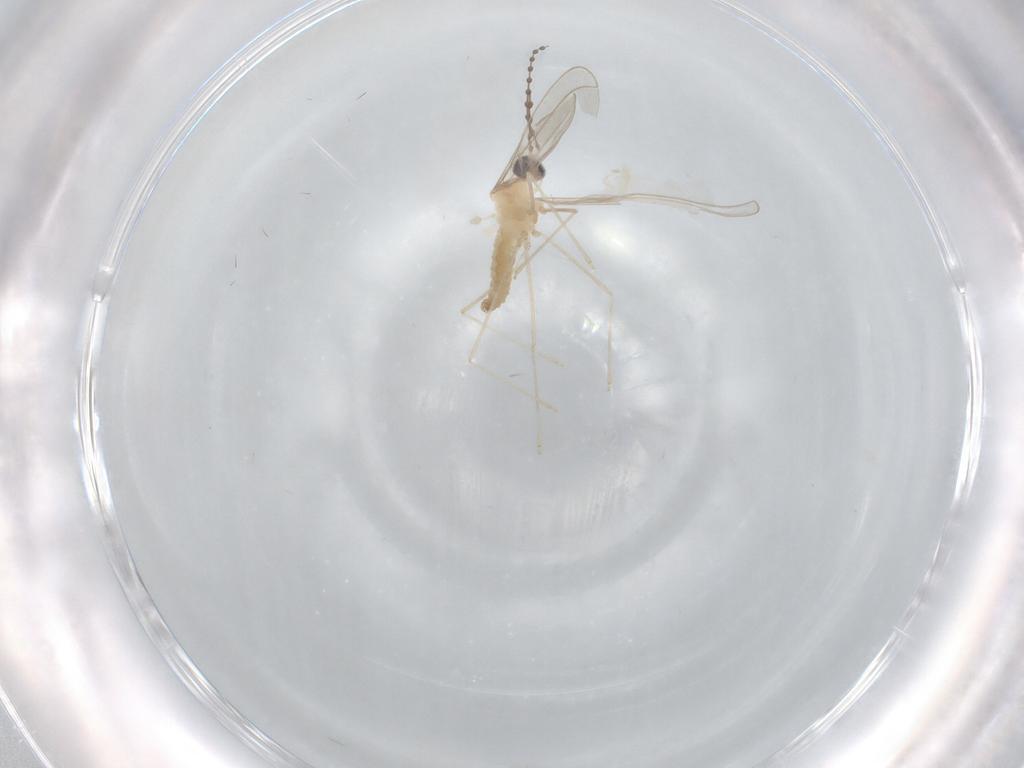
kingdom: Animalia
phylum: Arthropoda
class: Insecta
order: Diptera
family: Cecidomyiidae
